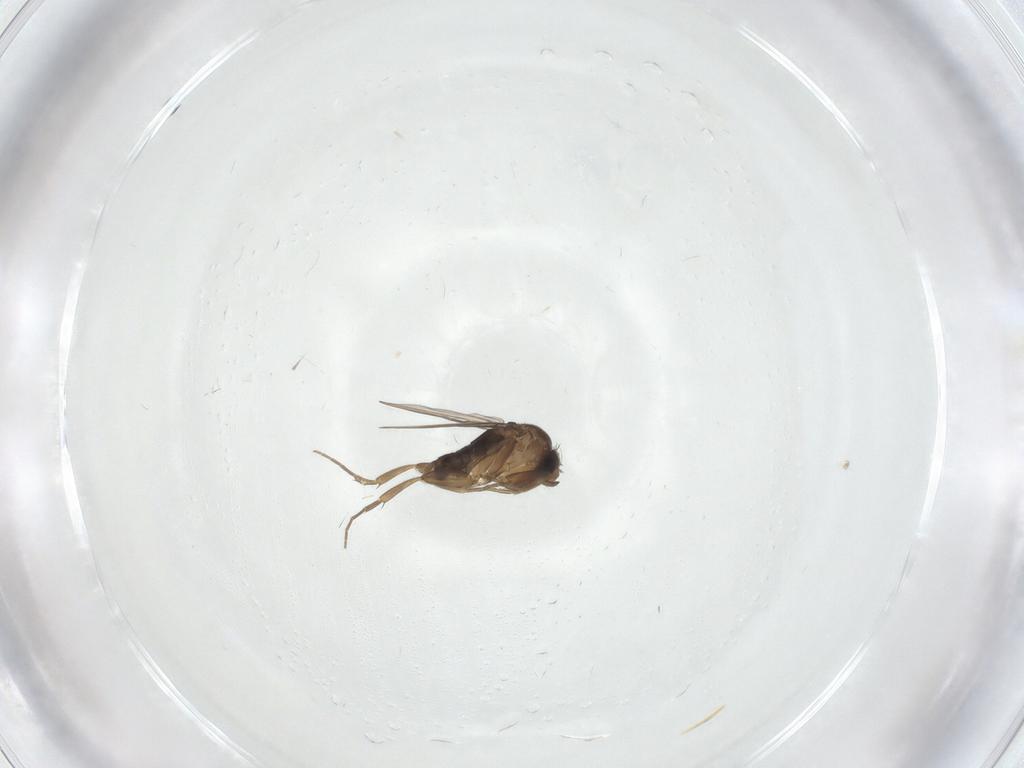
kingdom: Animalia
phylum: Arthropoda
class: Insecta
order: Diptera
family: Phoridae
